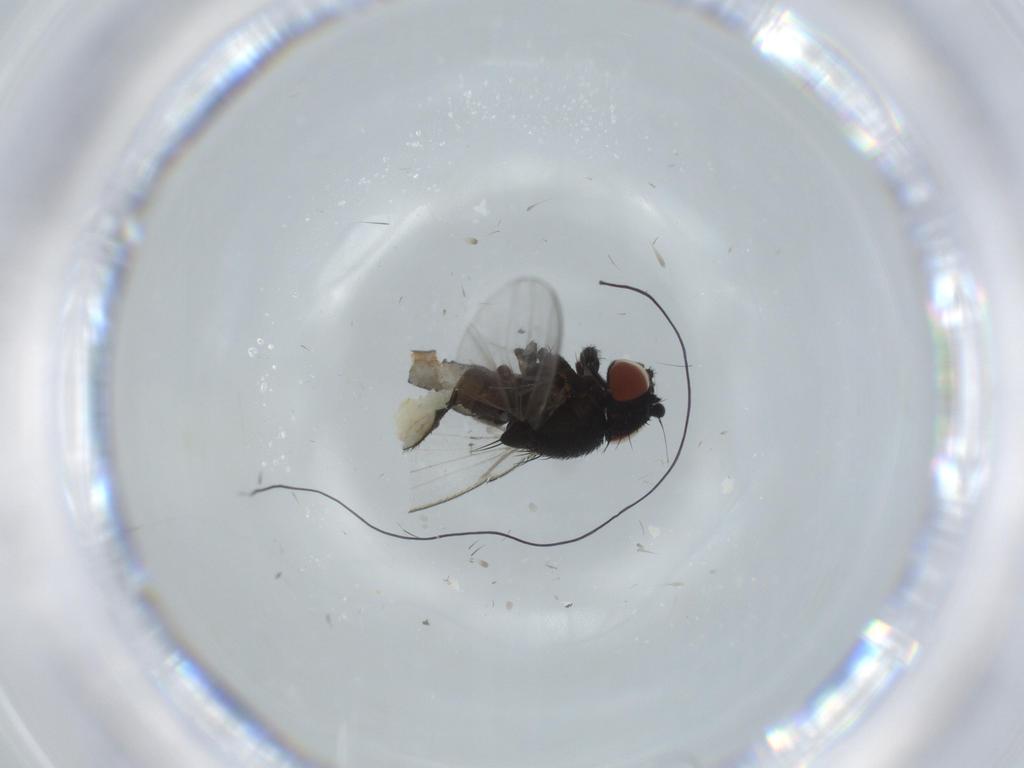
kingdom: Animalia
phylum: Arthropoda
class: Insecta
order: Diptera
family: Milichiidae
